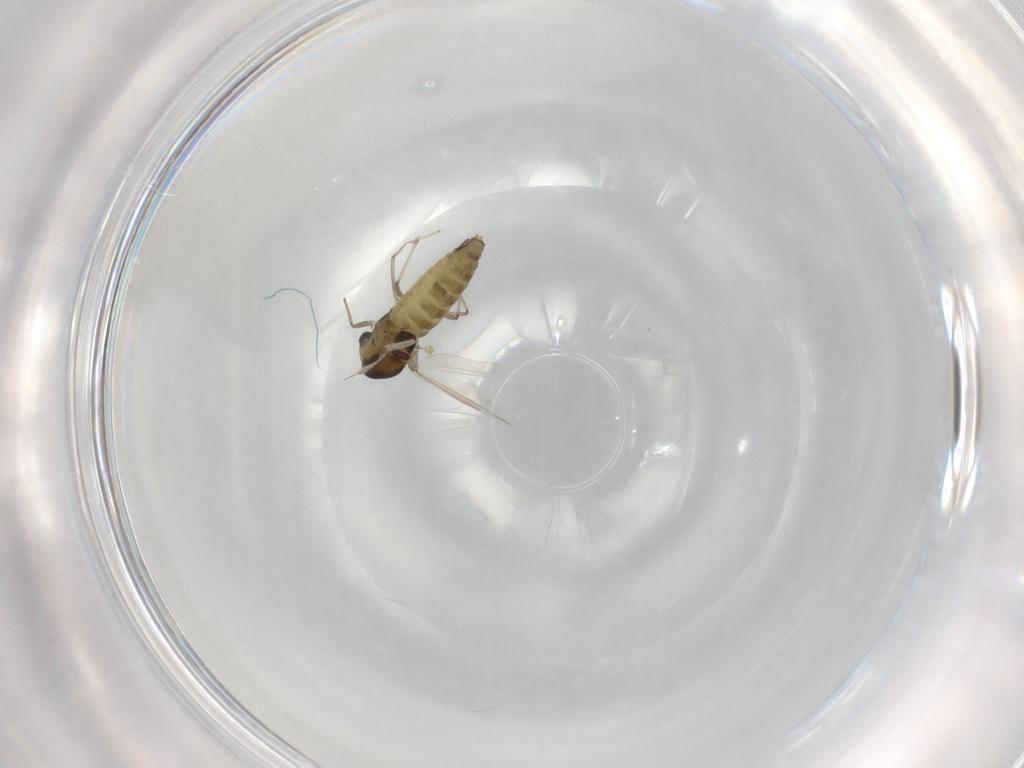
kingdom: Animalia
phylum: Arthropoda
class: Insecta
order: Diptera
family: Chironomidae
